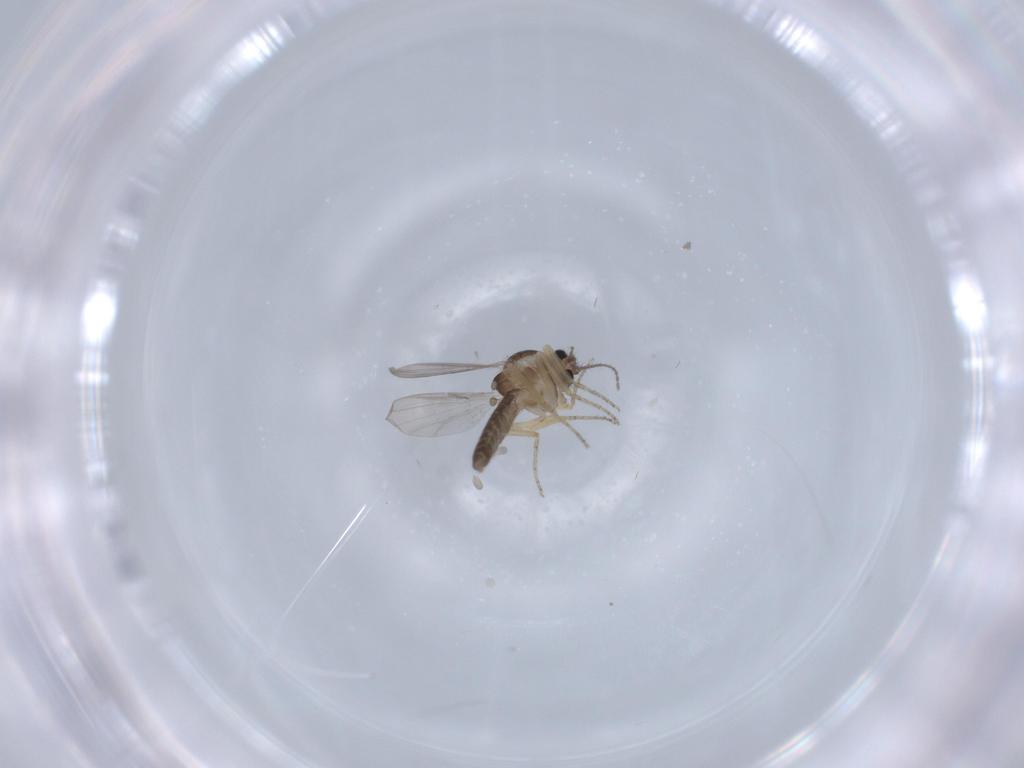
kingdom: Animalia
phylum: Arthropoda
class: Insecta
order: Diptera
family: Ceratopogonidae
